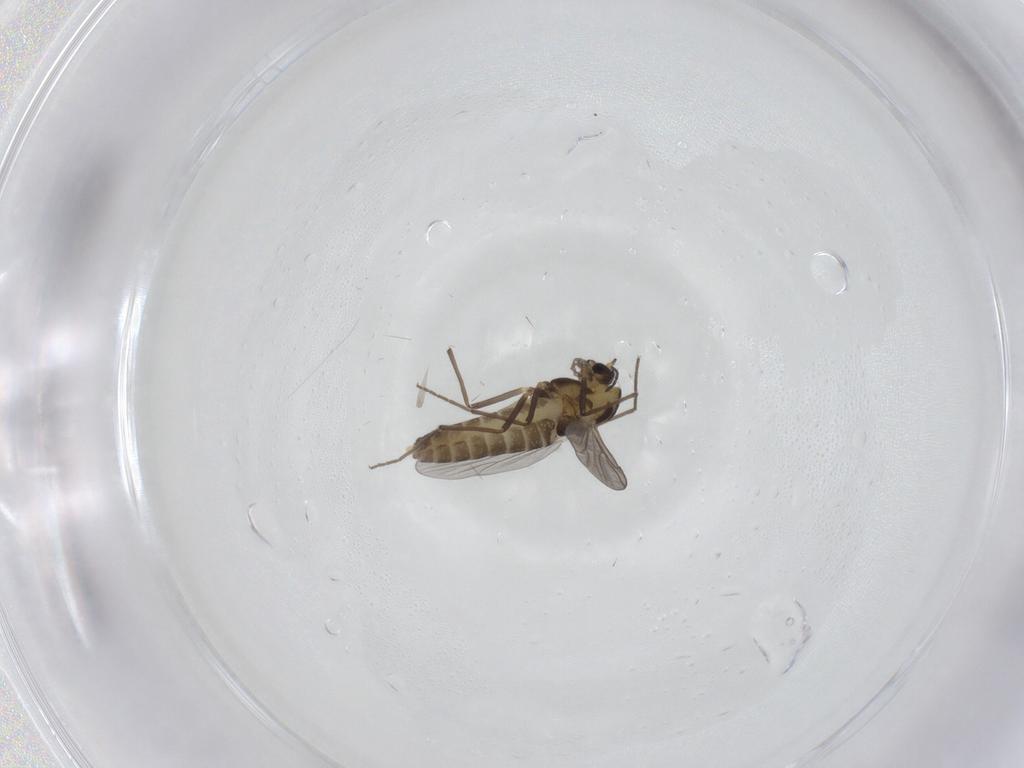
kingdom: Animalia
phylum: Arthropoda
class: Insecta
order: Diptera
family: Chironomidae
